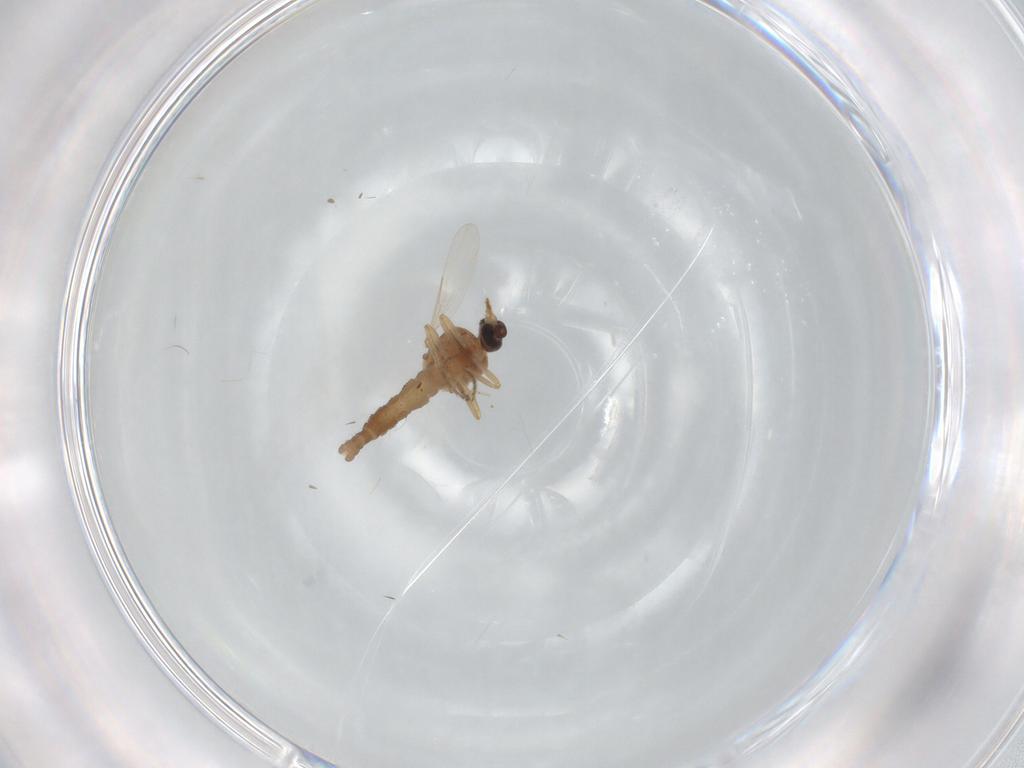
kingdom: Animalia
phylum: Arthropoda
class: Insecta
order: Diptera
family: Ceratopogonidae
